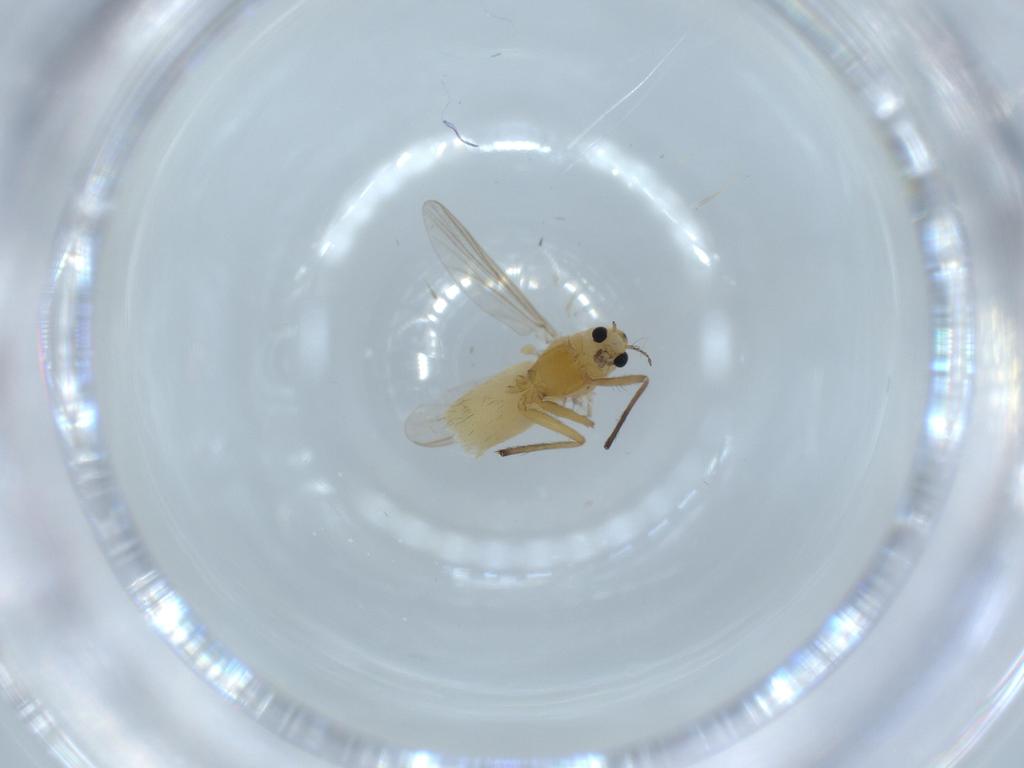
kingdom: Animalia
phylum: Arthropoda
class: Insecta
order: Diptera
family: Chironomidae
